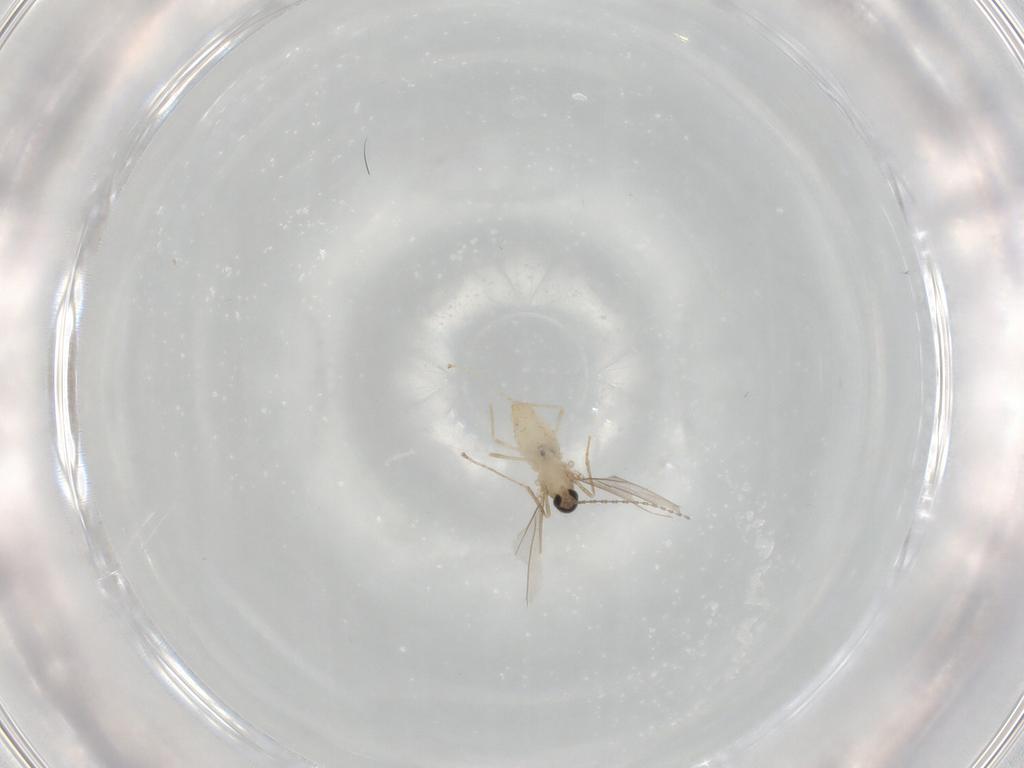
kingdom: Animalia
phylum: Arthropoda
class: Insecta
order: Diptera
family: Cecidomyiidae
